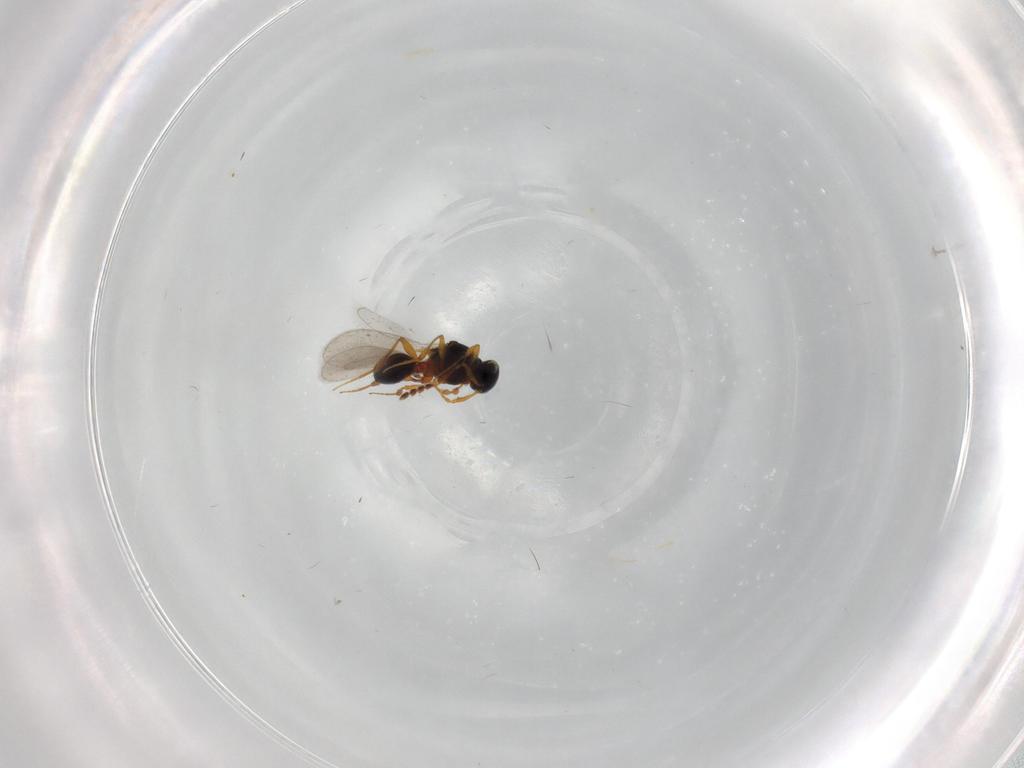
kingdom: Animalia
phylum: Arthropoda
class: Insecta
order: Hymenoptera
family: Platygastridae
